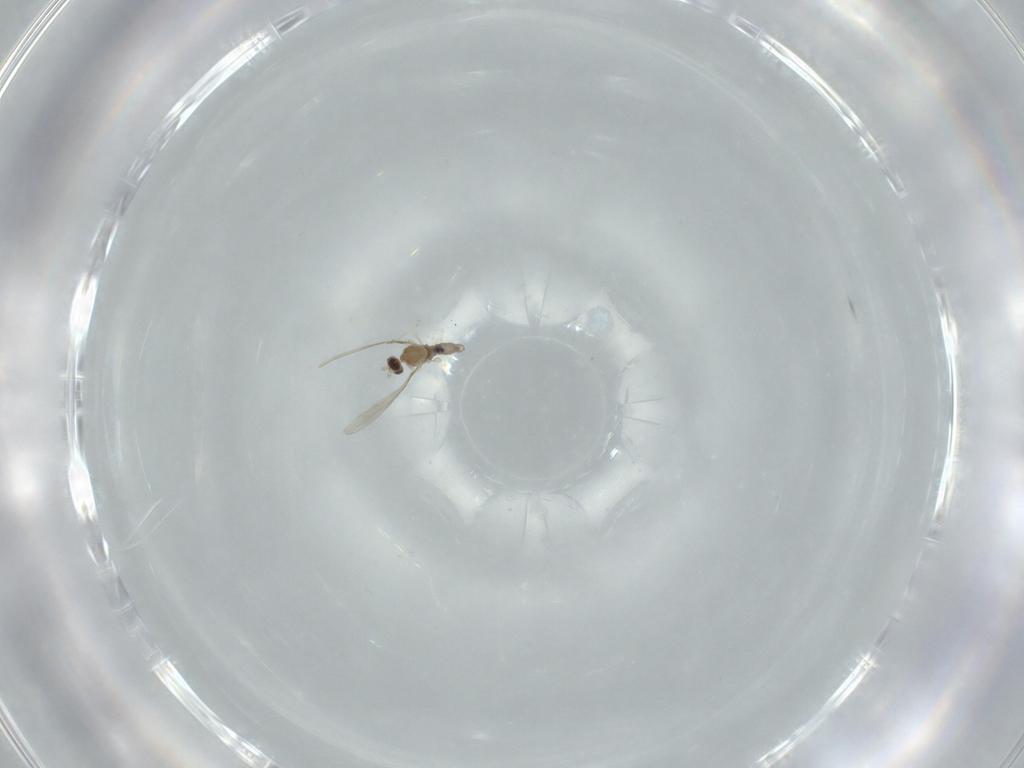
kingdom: Animalia
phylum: Arthropoda
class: Insecta
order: Diptera
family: Cecidomyiidae
